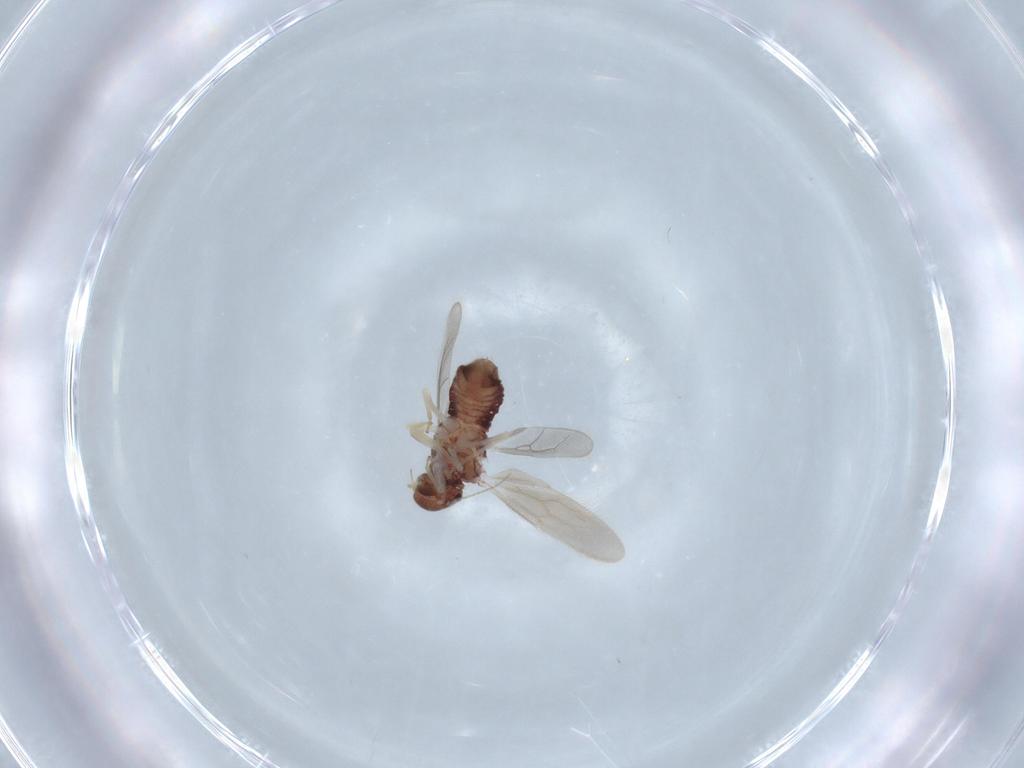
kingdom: Animalia
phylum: Arthropoda
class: Insecta
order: Psocodea
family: Archipsocidae
